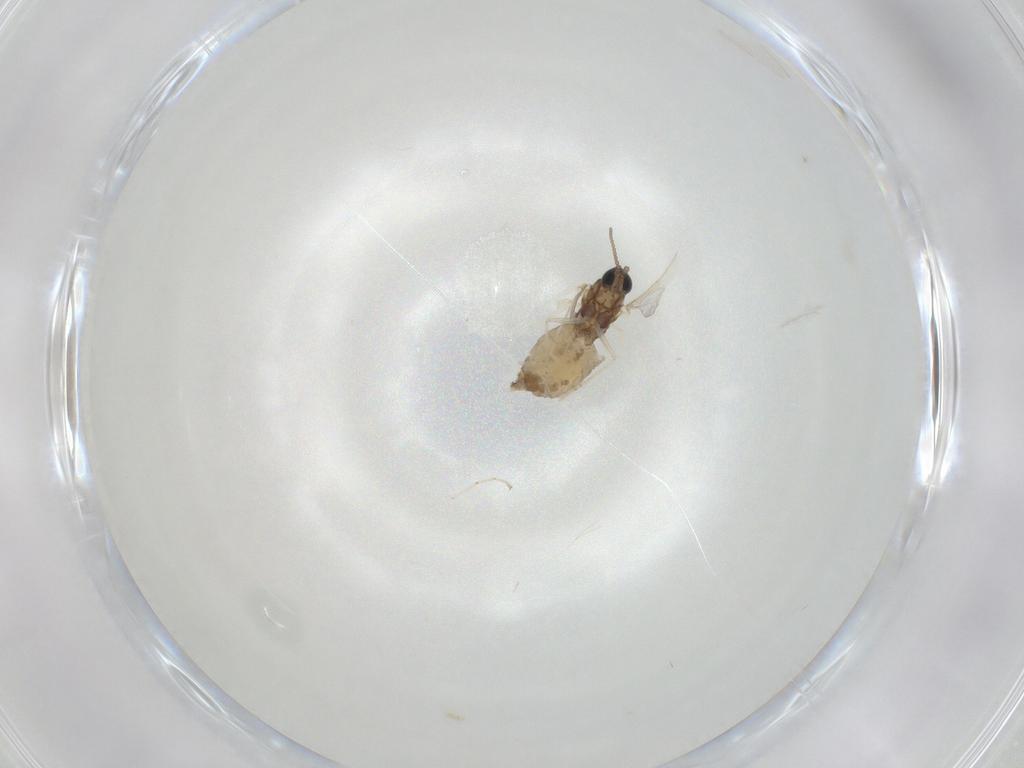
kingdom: Animalia
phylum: Arthropoda
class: Insecta
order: Diptera
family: Cecidomyiidae
